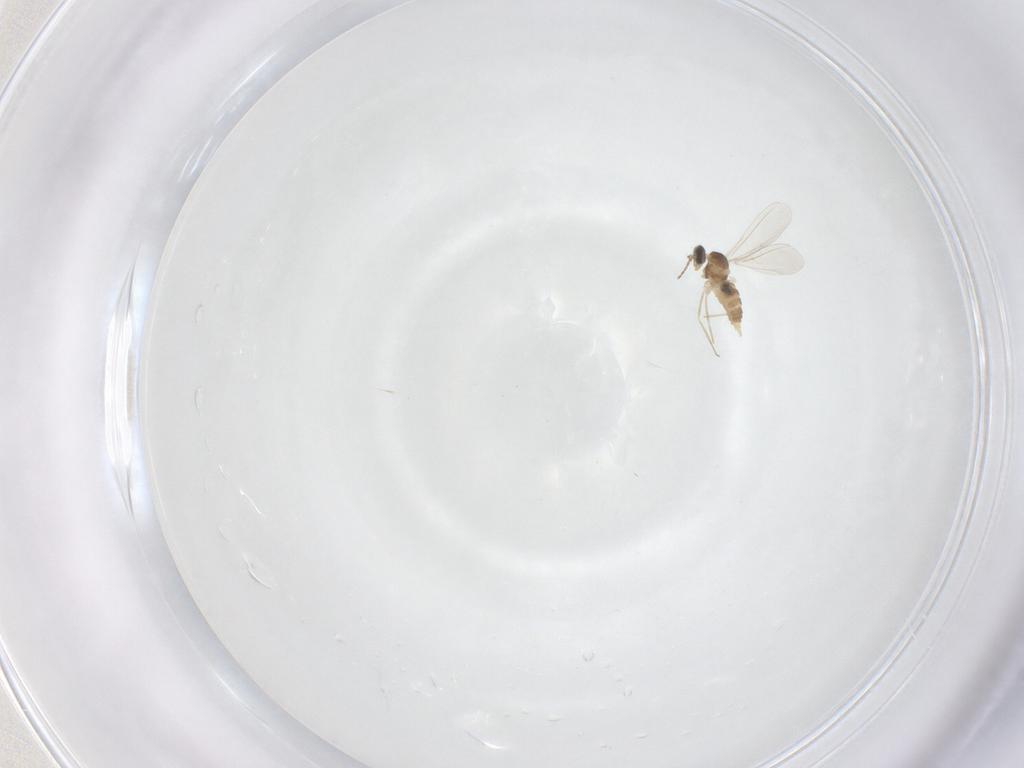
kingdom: Animalia
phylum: Arthropoda
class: Insecta
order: Diptera
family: Cecidomyiidae
